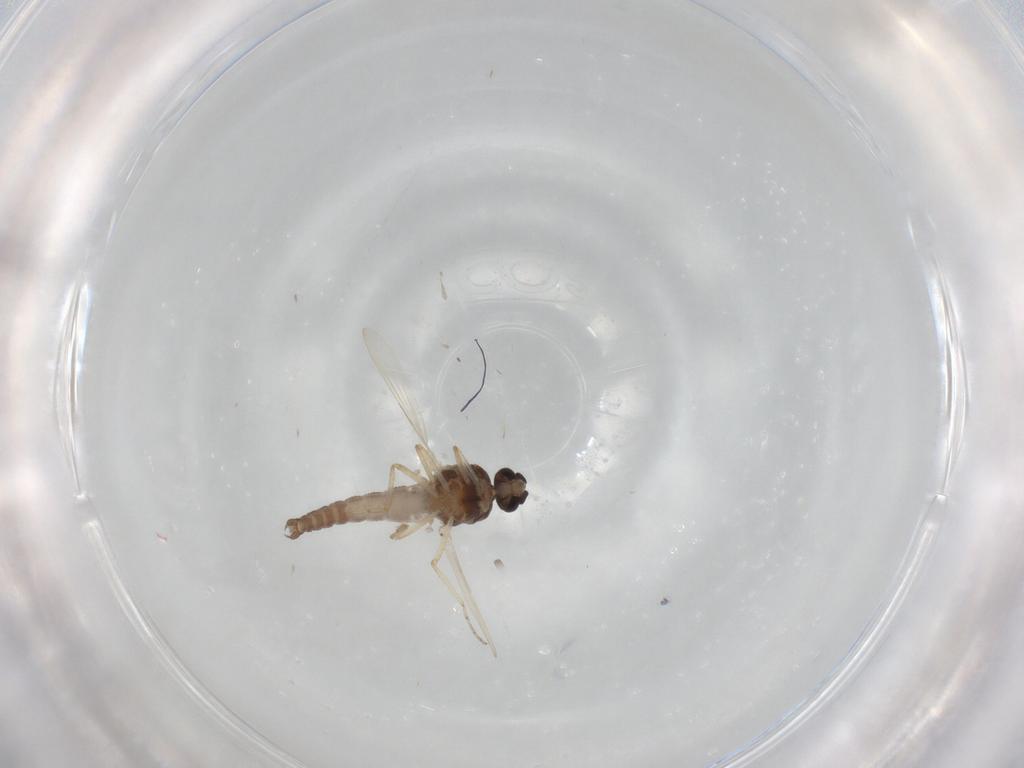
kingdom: Animalia
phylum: Arthropoda
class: Insecta
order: Diptera
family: Ceratopogonidae
